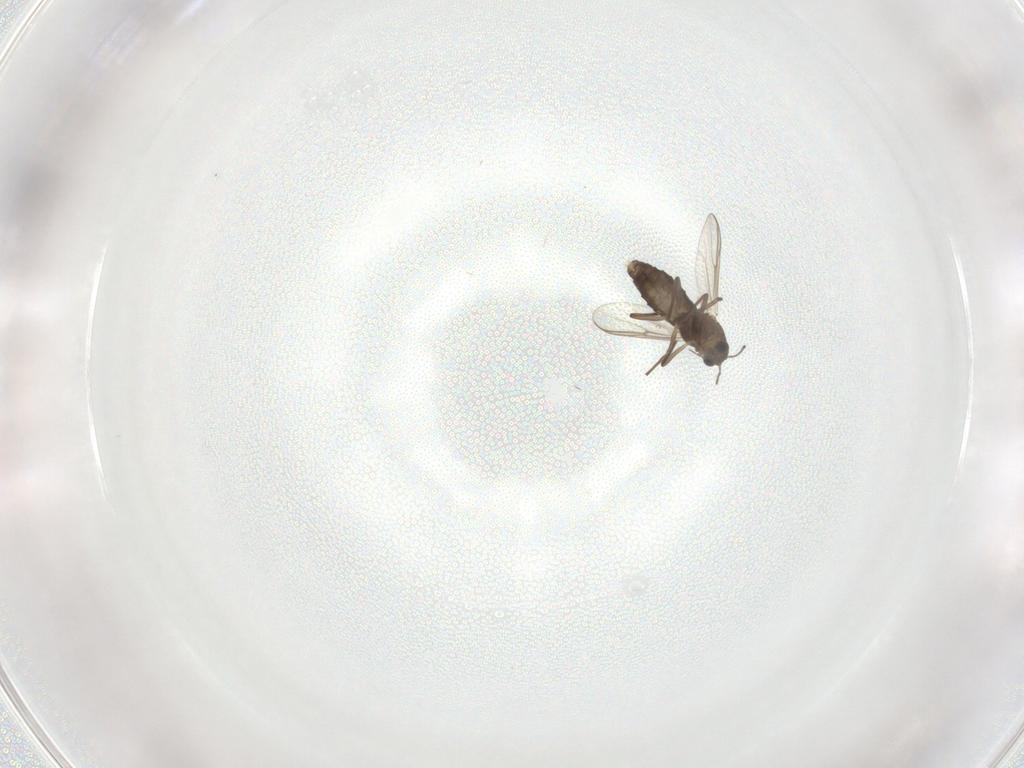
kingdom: Animalia
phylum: Arthropoda
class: Insecta
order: Diptera
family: Chironomidae
